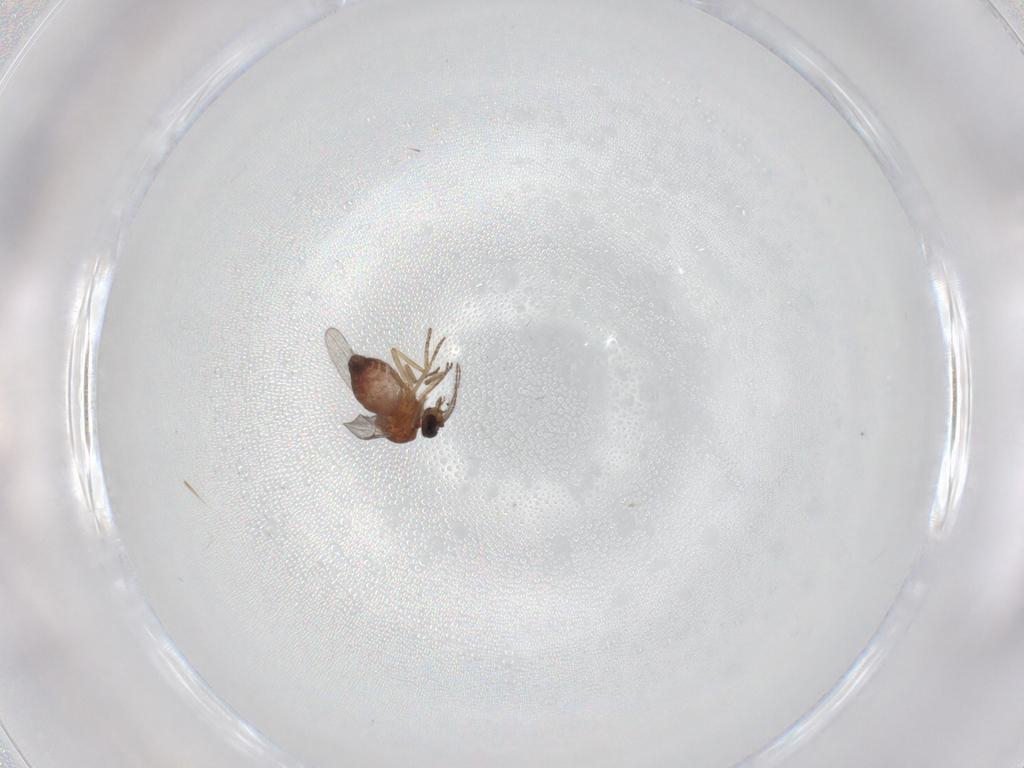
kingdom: Animalia
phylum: Arthropoda
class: Insecta
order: Diptera
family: Ceratopogonidae
